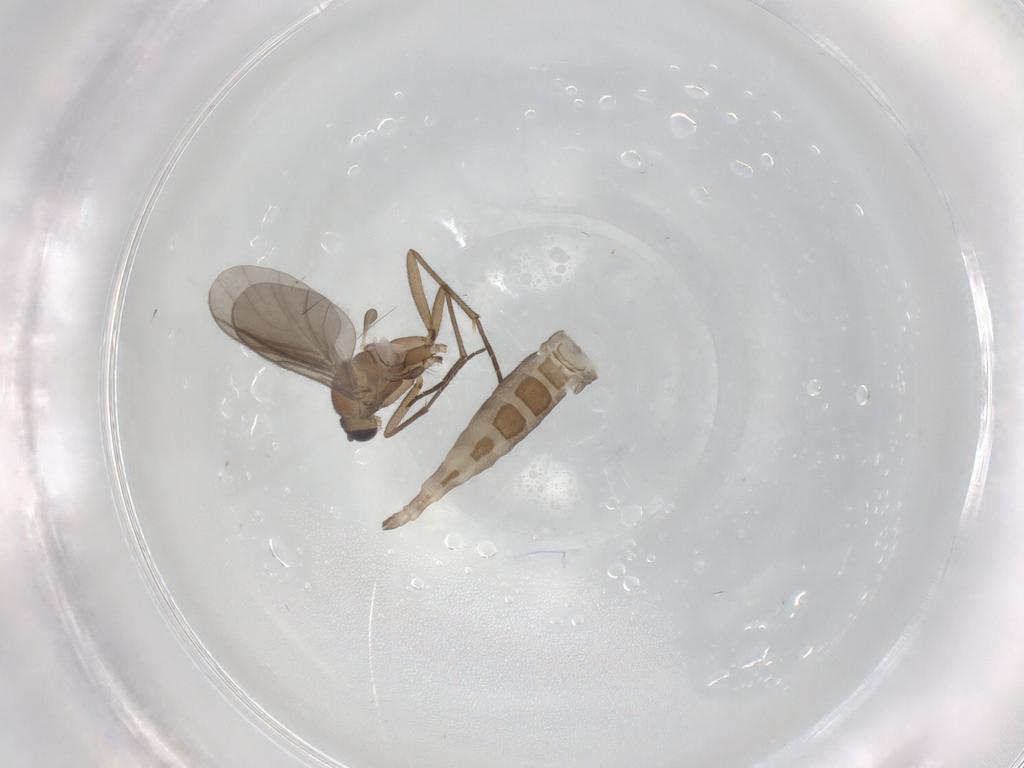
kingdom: Animalia
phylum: Arthropoda
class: Insecta
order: Diptera
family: Sciaridae
